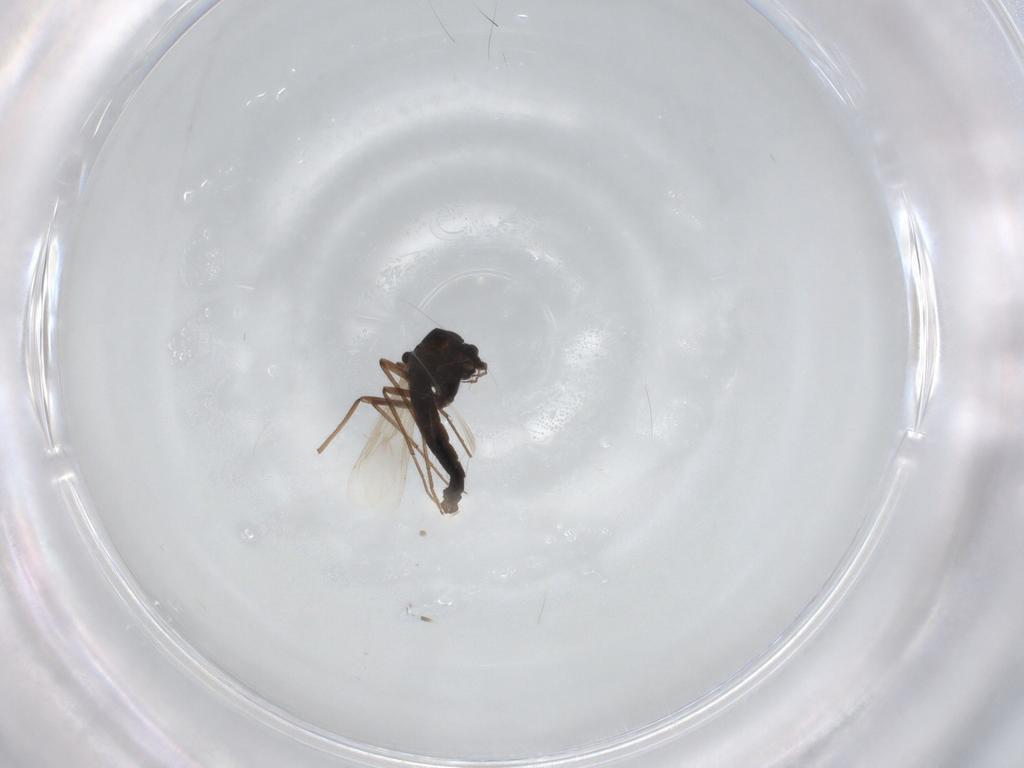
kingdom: Animalia
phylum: Arthropoda
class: Insecta
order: Diptera
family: Chironomidae
